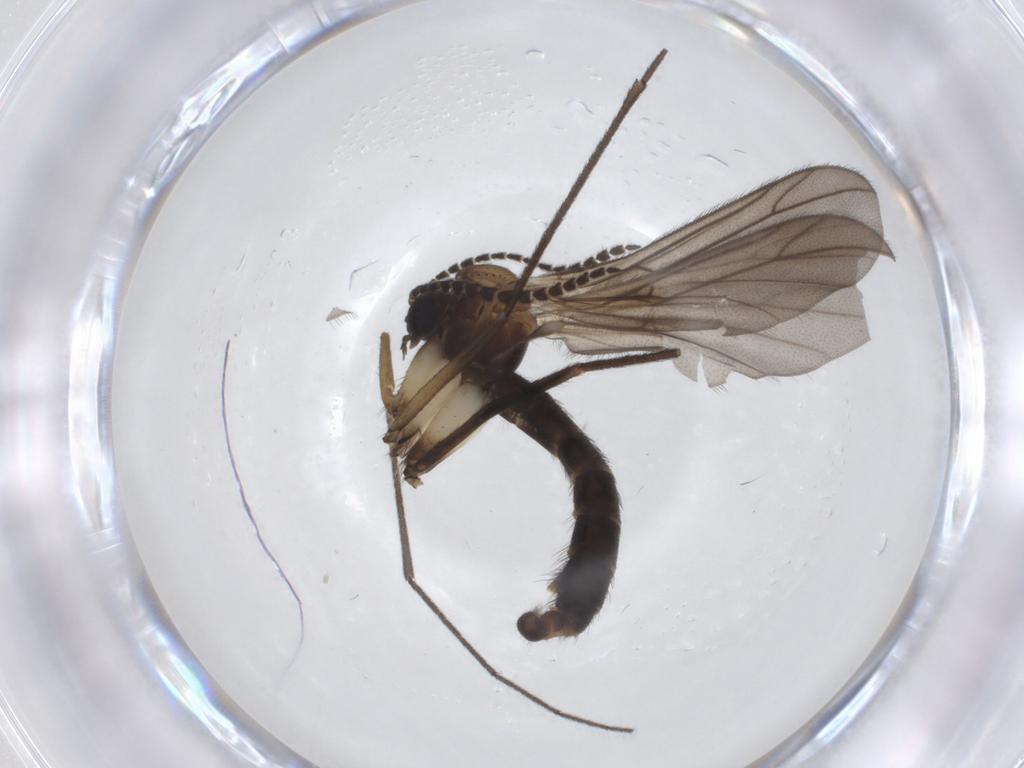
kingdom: Animalia
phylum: Arthropoda
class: Insecta
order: Diptera
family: Ditomyiidae
